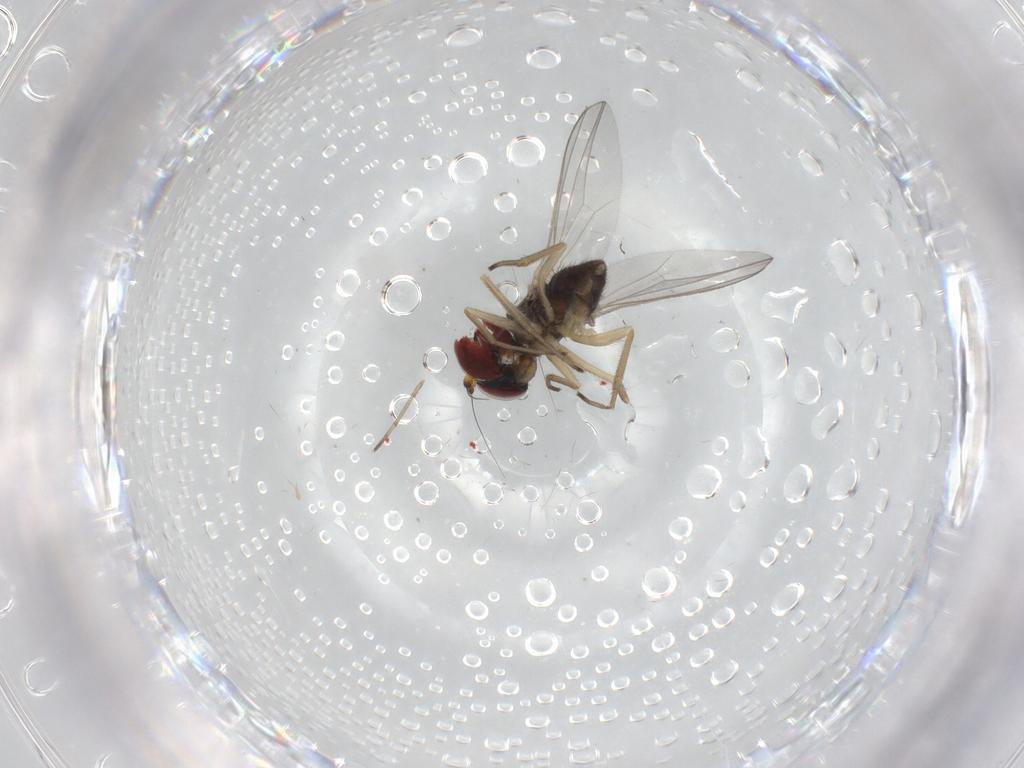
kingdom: Animalia
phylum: Arthropoda
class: Insecta
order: Diptera
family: Sciaridae
